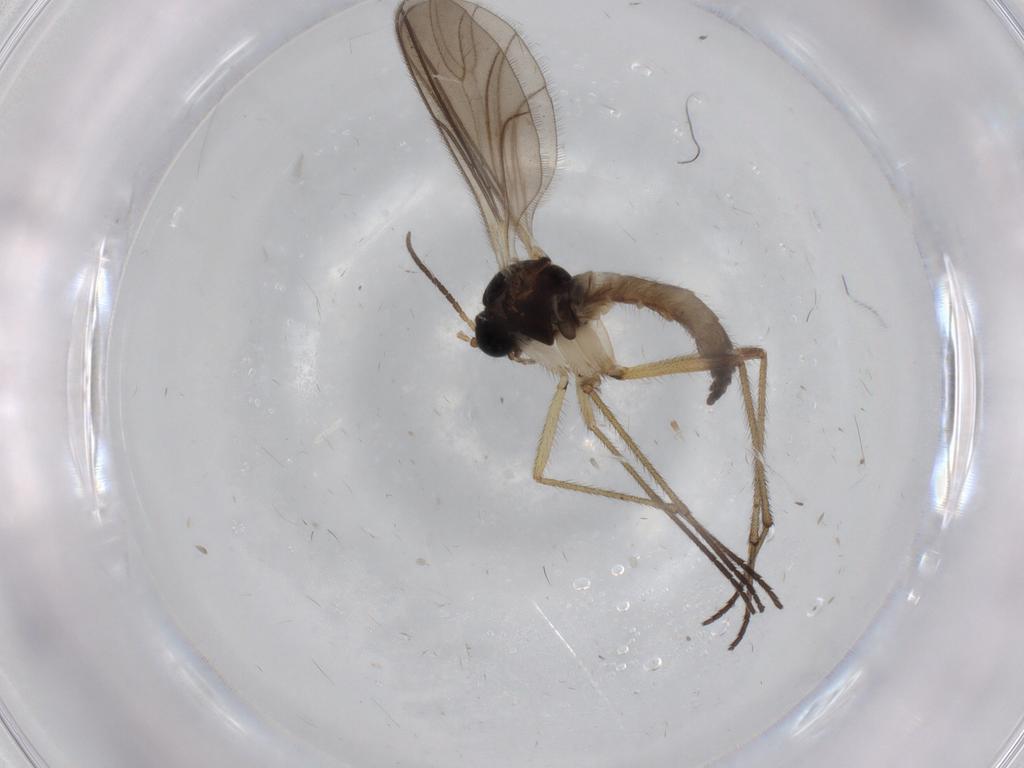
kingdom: Animalia
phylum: Arthropoda
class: Insecta
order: Diptera
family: Sciaridae
